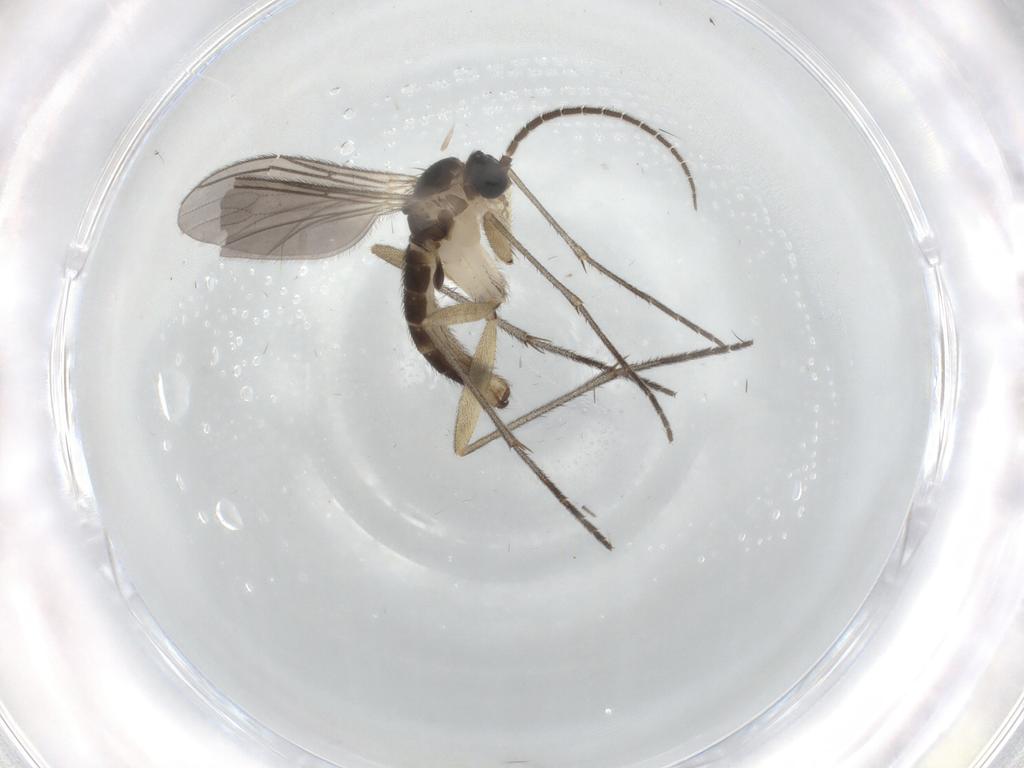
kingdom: Animalia
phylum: Arthropoda
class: Insecta
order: Diptera
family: Sciaridae
